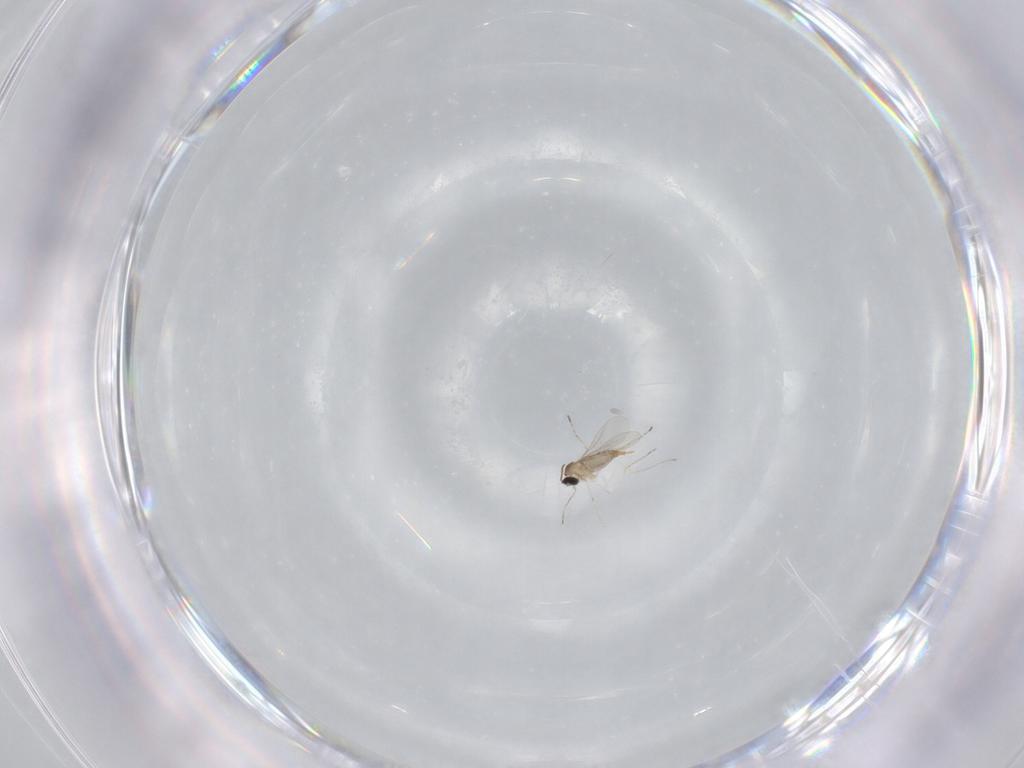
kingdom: Animalia
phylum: Arthropoda
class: Insecta
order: Diptera
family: Cecidomyiidae
